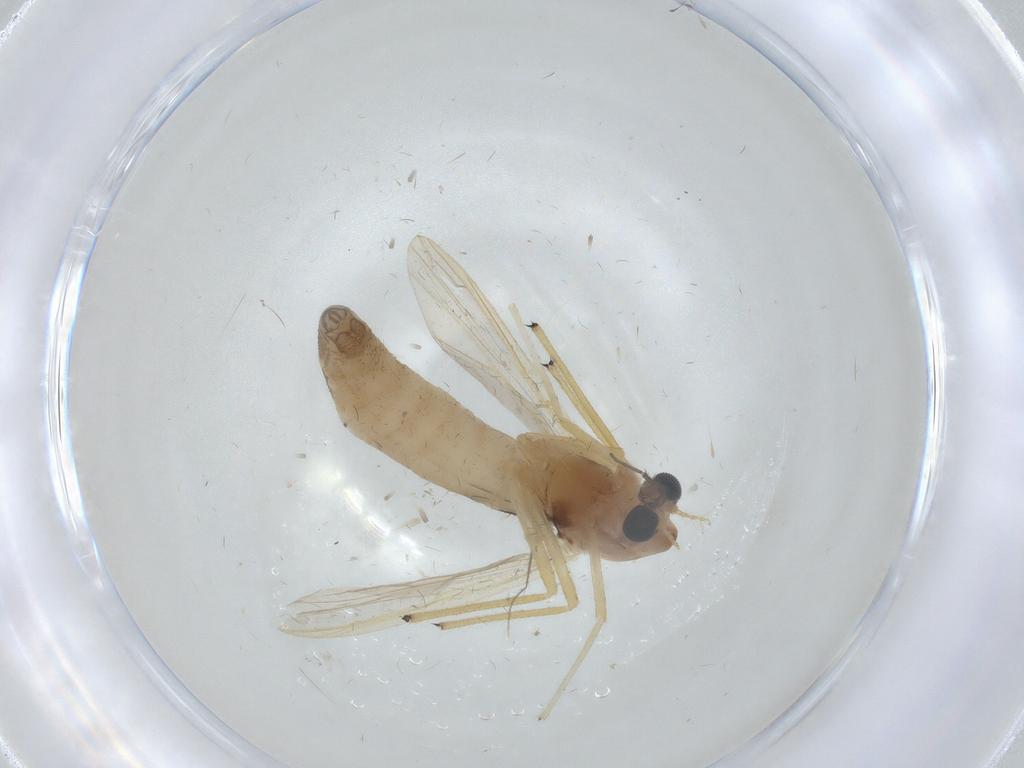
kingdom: Animalia
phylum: Arthropoda
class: Insecta
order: Diptera
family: Chironomidae
